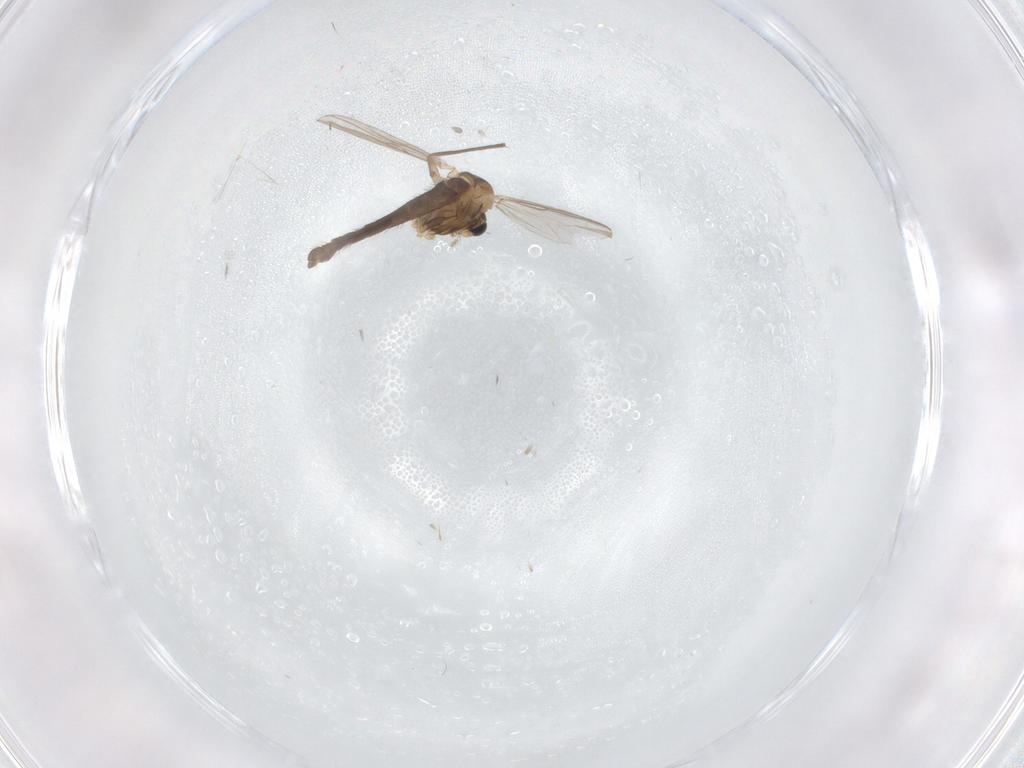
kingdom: Animalia
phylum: Arthropoda
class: Insecta
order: Diptera
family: Chironomidae
